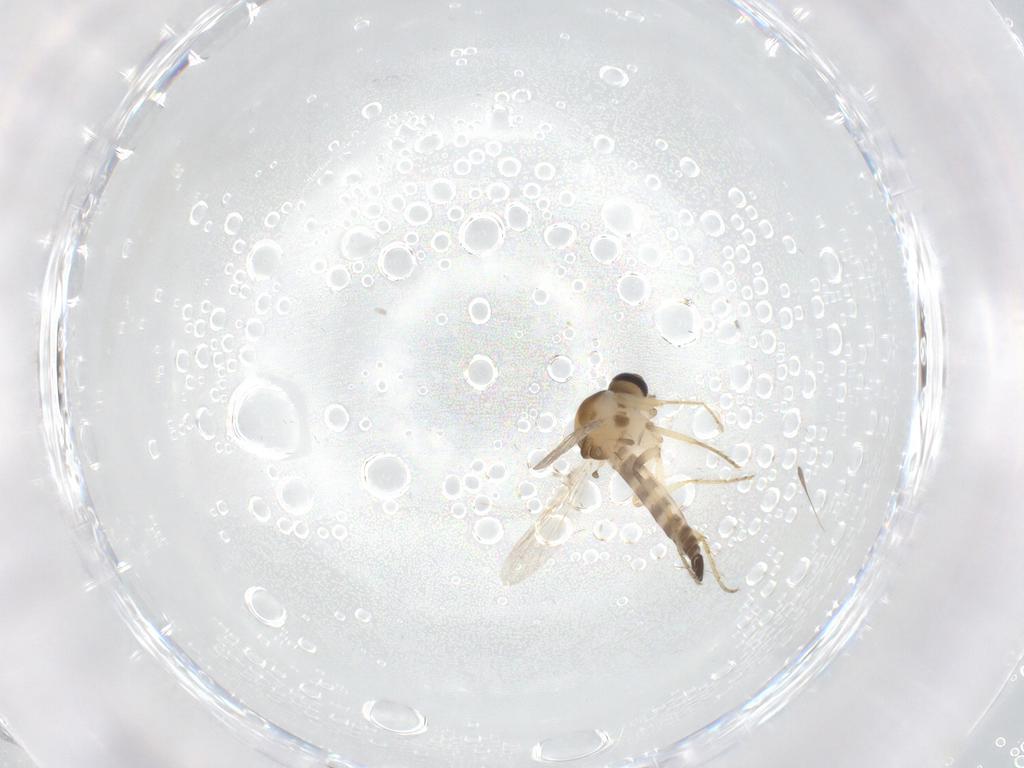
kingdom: Animalia
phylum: Arthropoda
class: Insecta
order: Diptera
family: Ceratopogonidae
